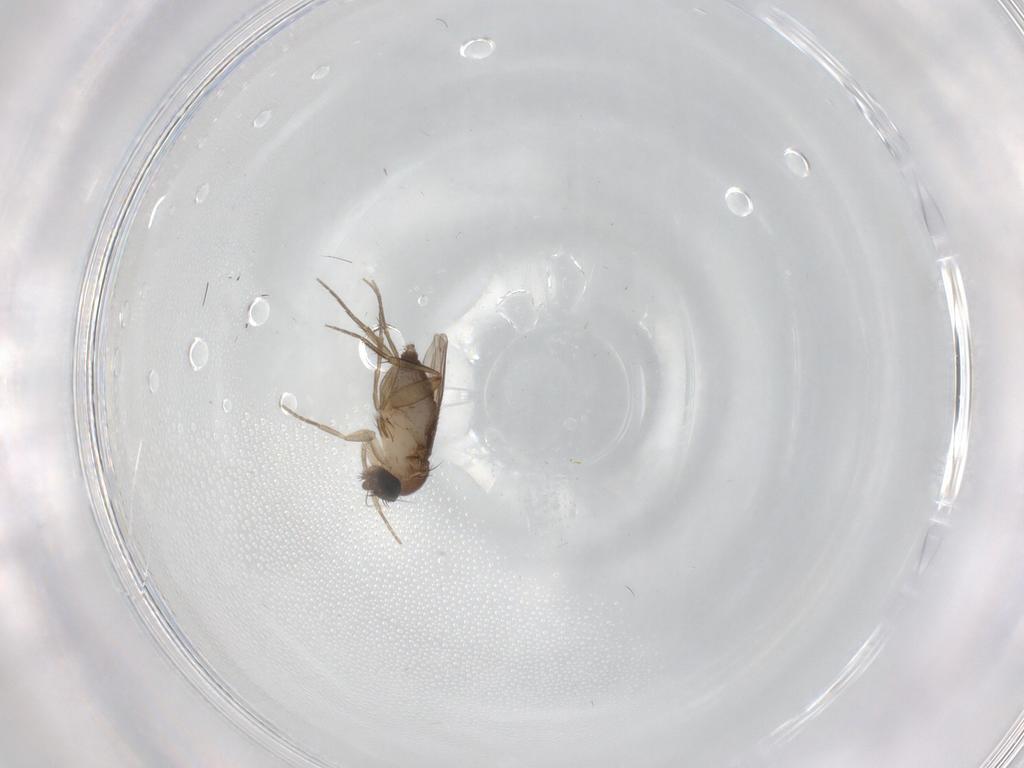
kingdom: Animalia
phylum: Arthropoda
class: Insecta
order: Diptera
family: Phoridae
